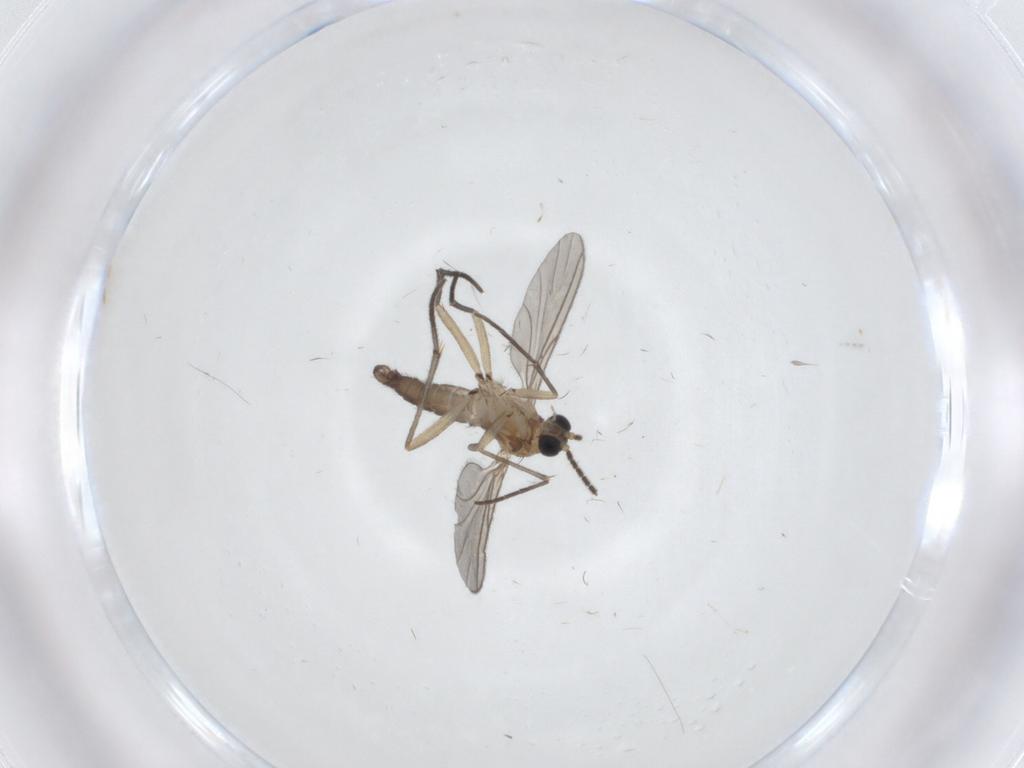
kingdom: Animalia
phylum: Arthropoda
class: Insecta
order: Diptera
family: Sciaridae
